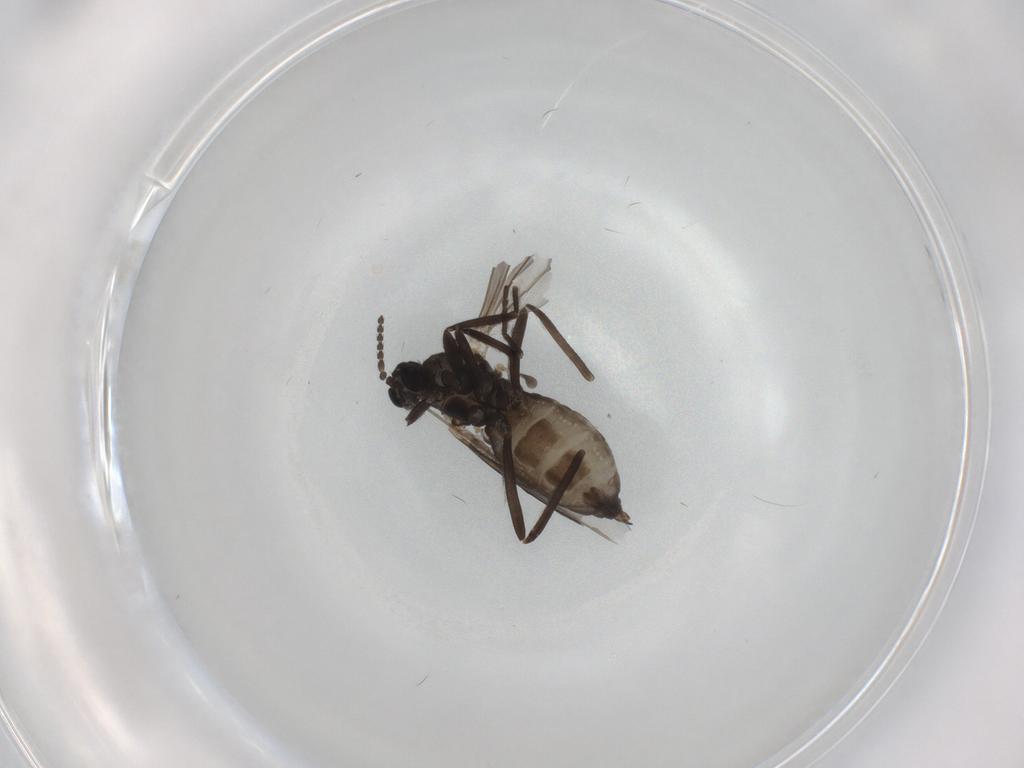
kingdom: Animalia
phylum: Arthropoda
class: Insecta
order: Diptera
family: Chironomidae
